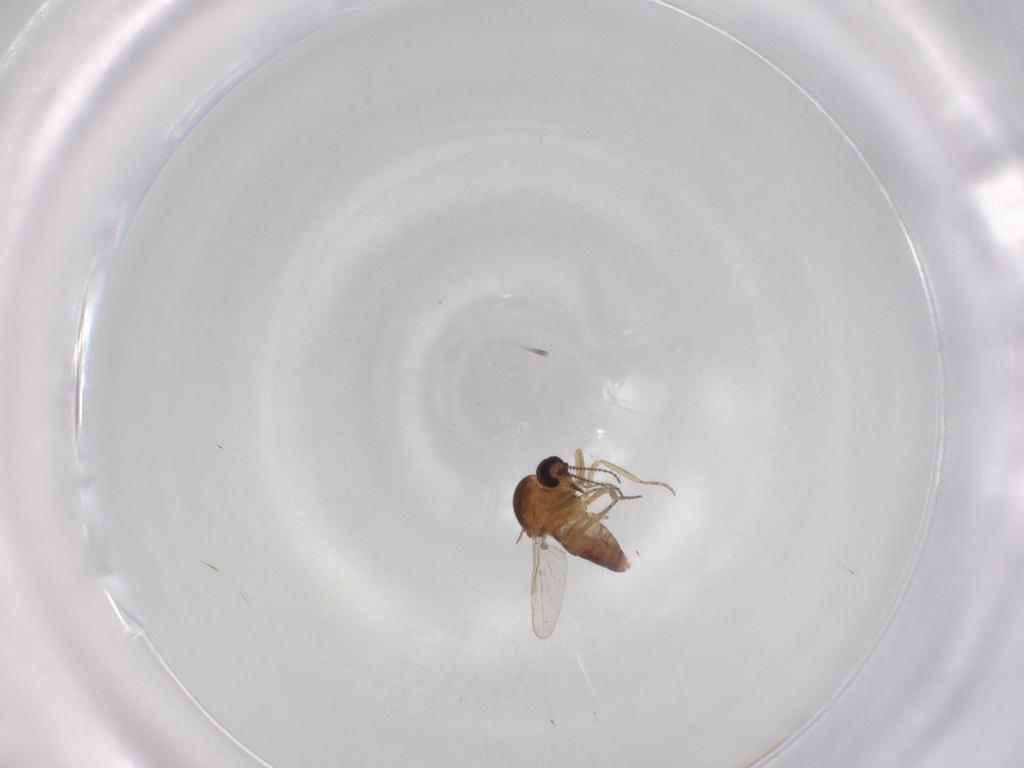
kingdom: Animalia
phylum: Arthropoda
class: Insecta
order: Diptera
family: Ceratopogonidae
